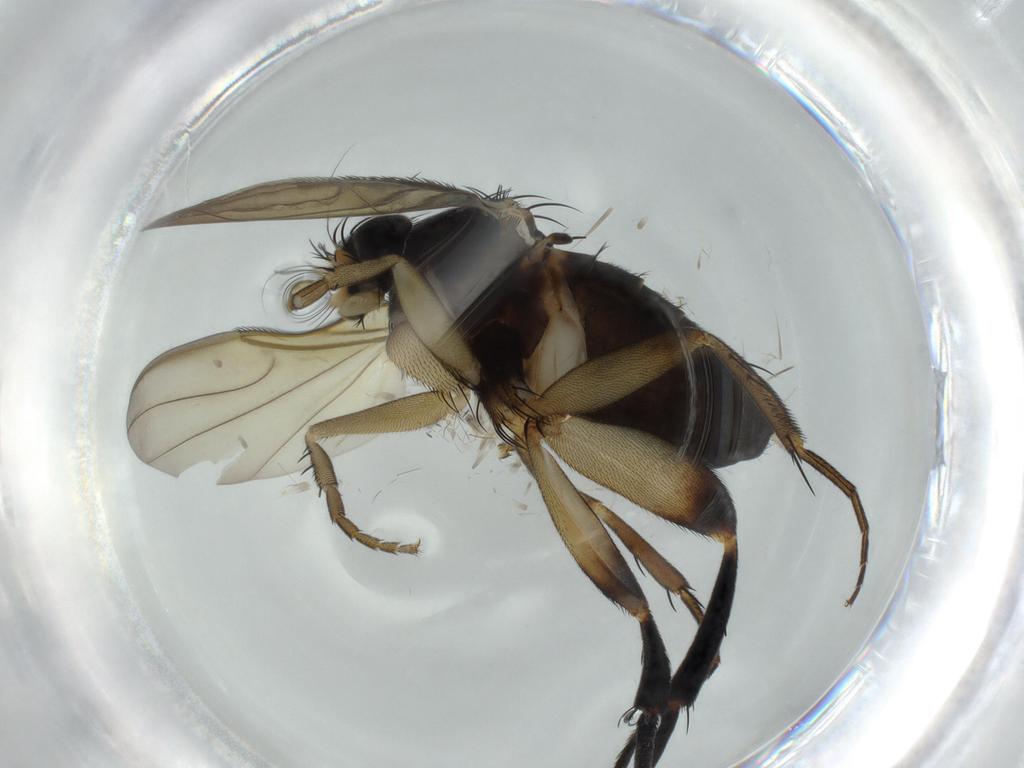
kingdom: Animalia
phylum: Arthropoda
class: Insecta
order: Diptera
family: Phoridae
